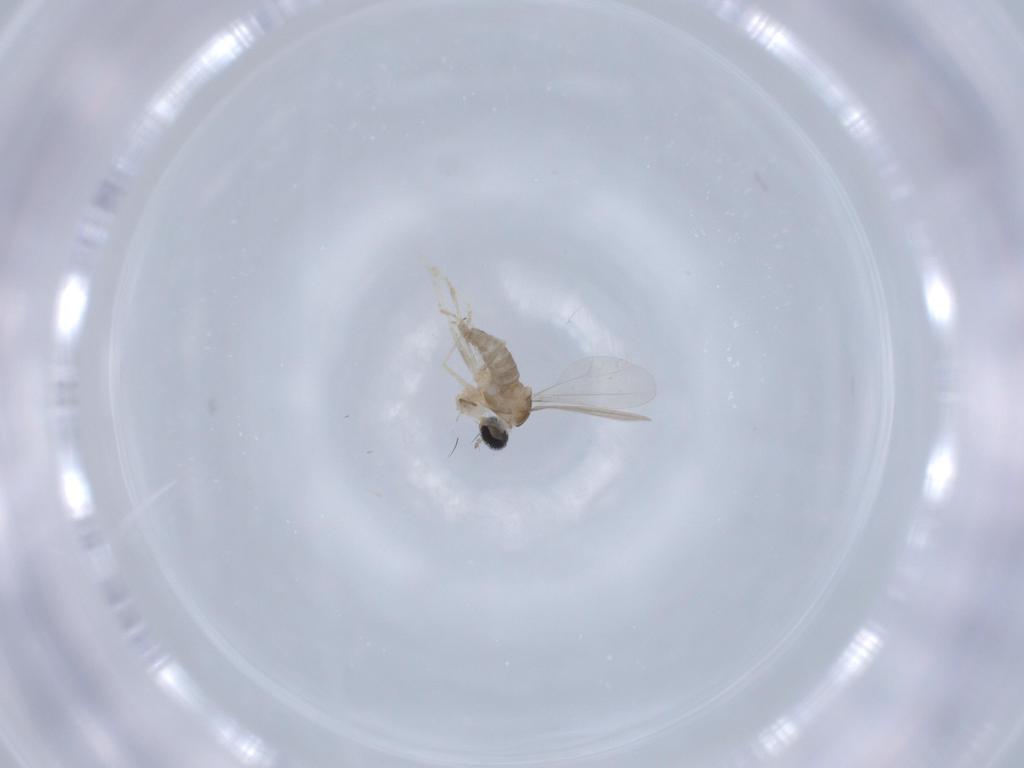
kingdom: Animalia
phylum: Arthropoda
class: Insecta
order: Diptera
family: Cecidomyiidae
